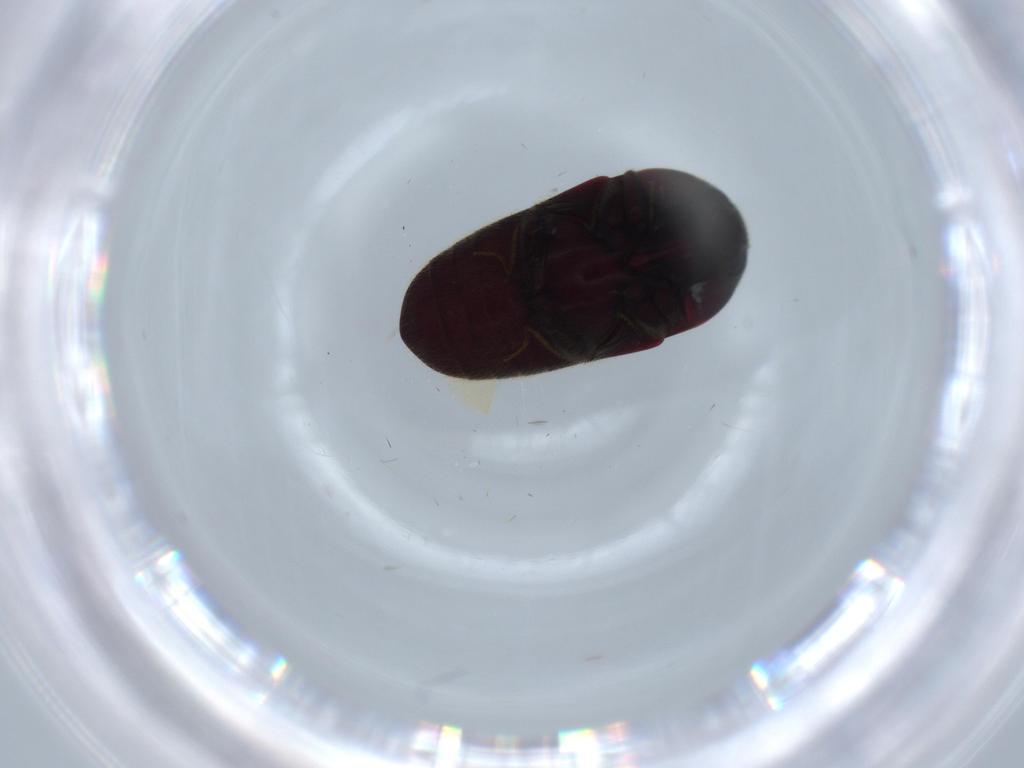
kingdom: Animalia
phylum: Arthropoda
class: Insecta
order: Coleoptera
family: Throscidae
